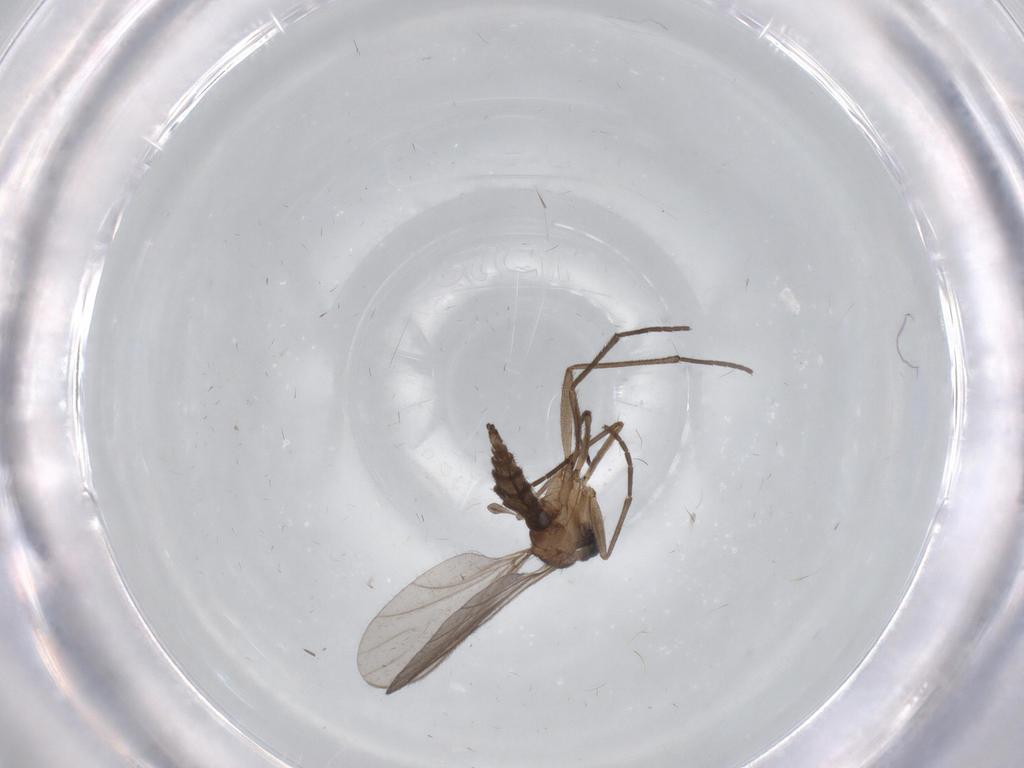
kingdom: Animalia
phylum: Arthropoda
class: Insecta
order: Diptera
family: Sciaridae
